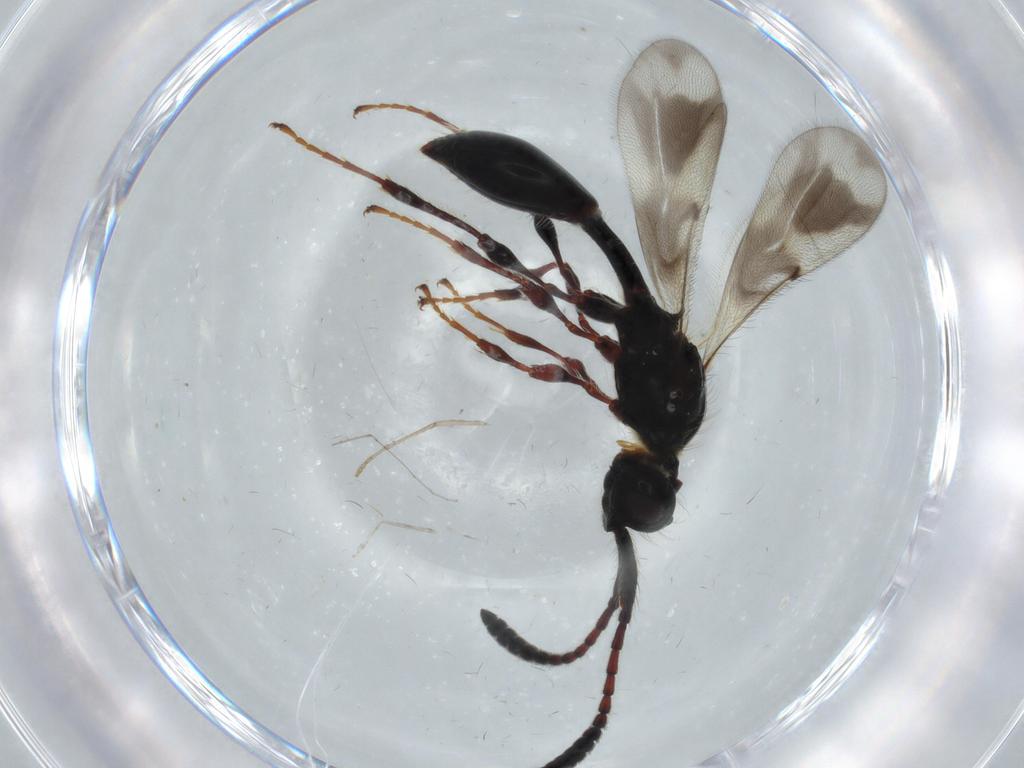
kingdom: Animalia
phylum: Arthropoda
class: Insecta
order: Hymenoptera
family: Diapriidae
